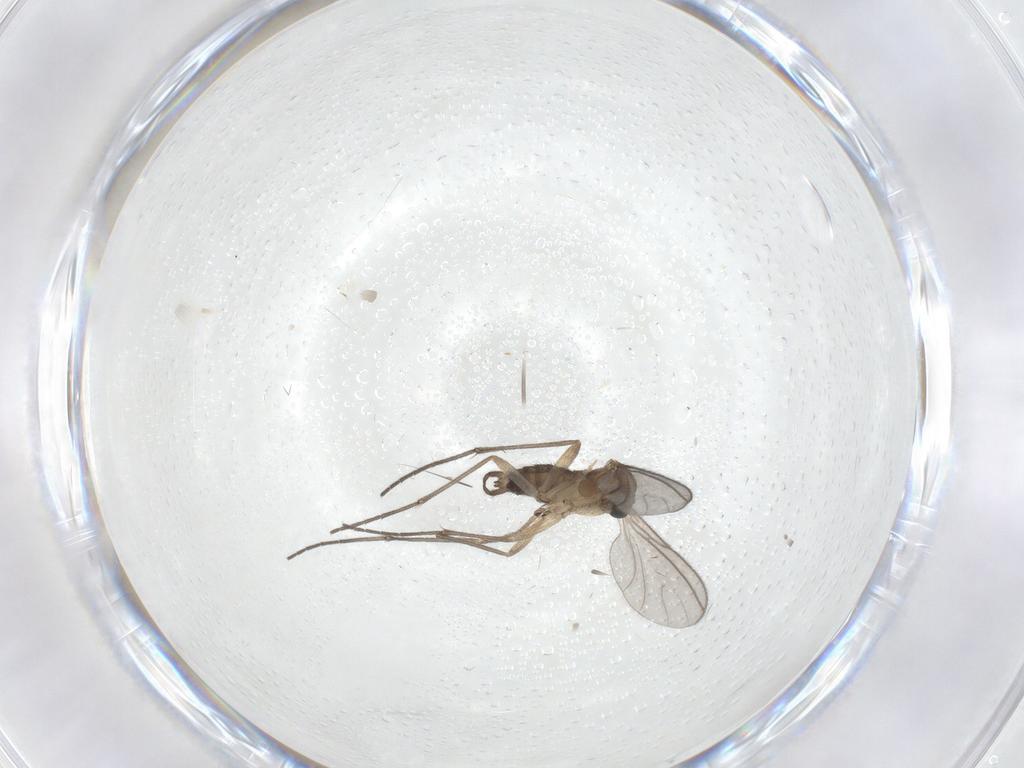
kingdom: Animalia
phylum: Arthropoda
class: Insecta
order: Diptera
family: Sciaridae
